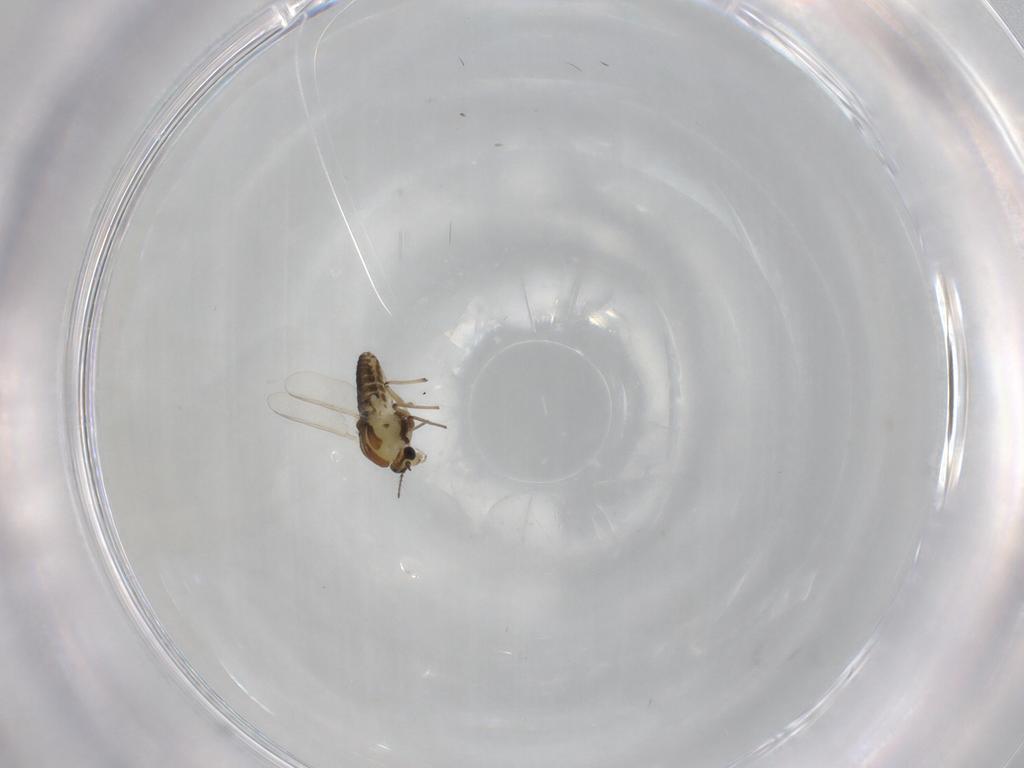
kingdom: Animalia
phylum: Arthropoda
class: Insecta
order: Diptera
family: Chironomidae
